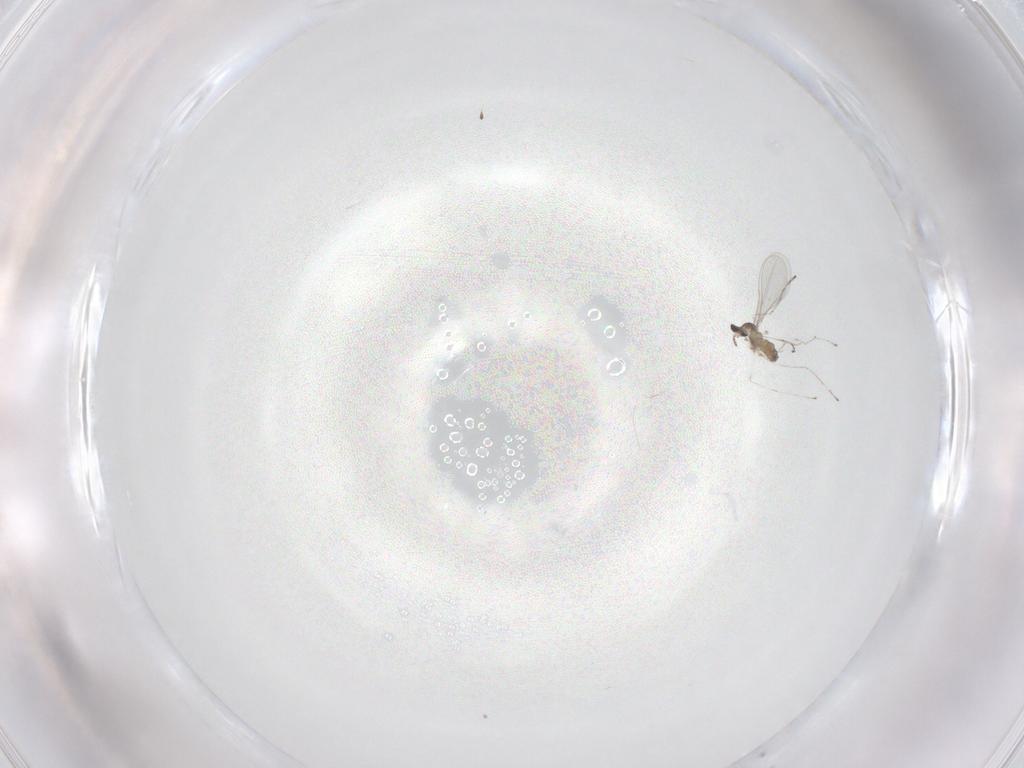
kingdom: Animalia
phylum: Arthropoda
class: Insecta
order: Diptera
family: Cecidomyiidae
